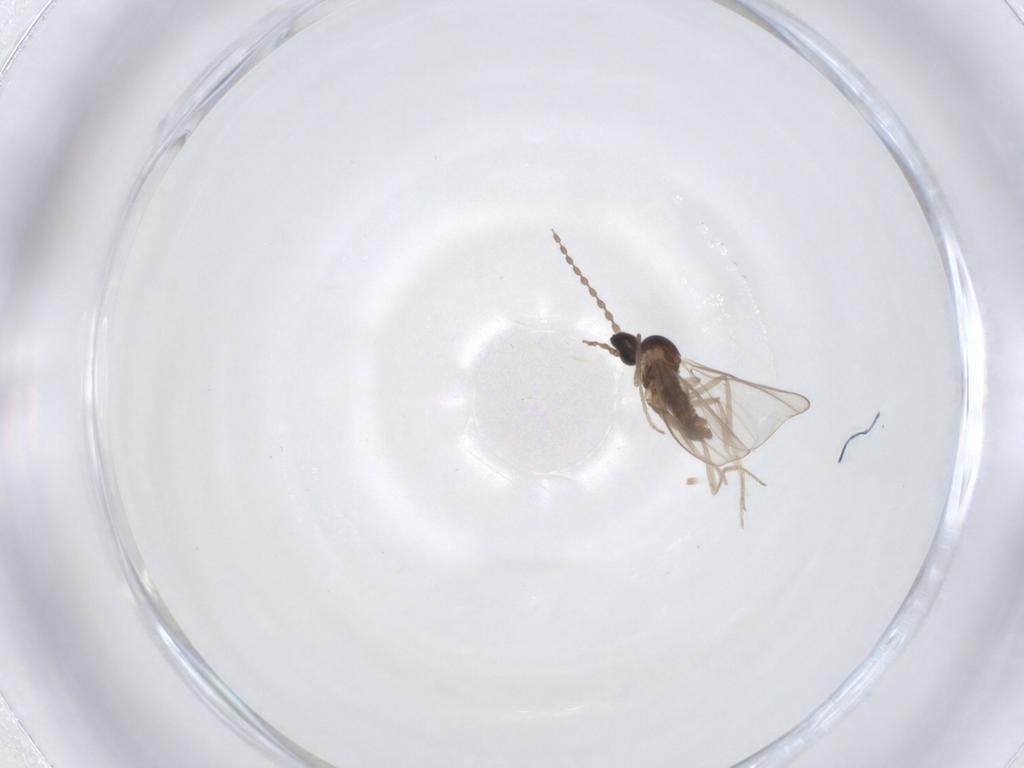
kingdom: Animalia
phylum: Arthropoda
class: Insecta
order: Diptera
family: Cecidomyiidae
